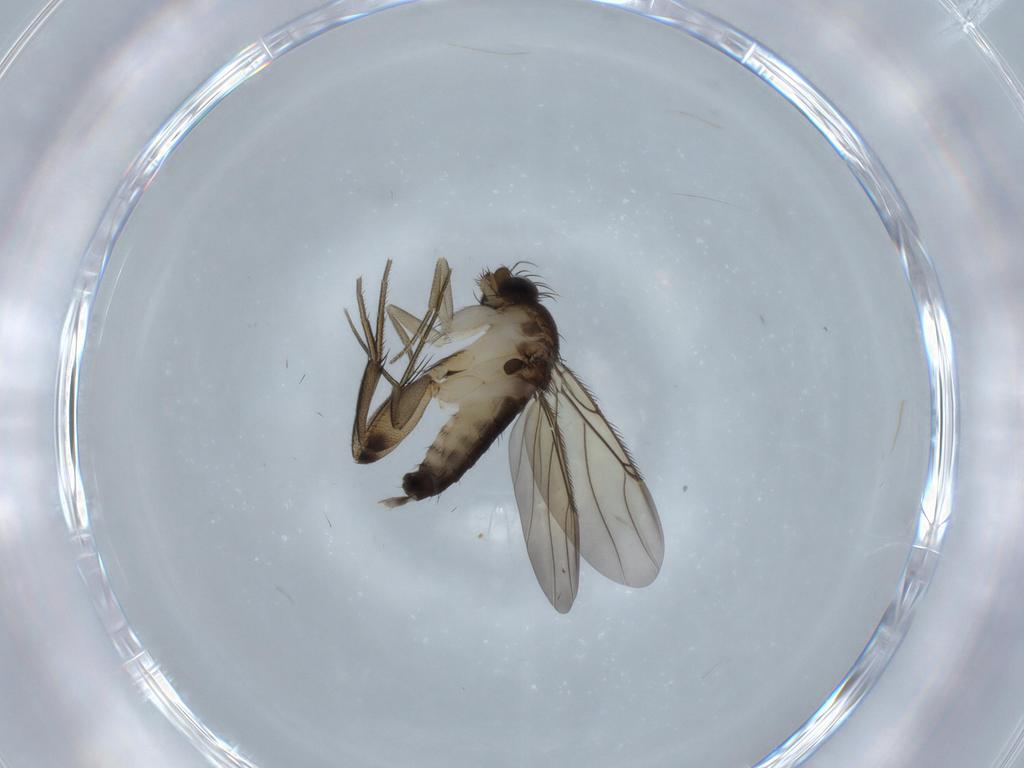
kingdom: Animalia
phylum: Arthropoda
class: Insecta
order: Diptera
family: Phoridae
